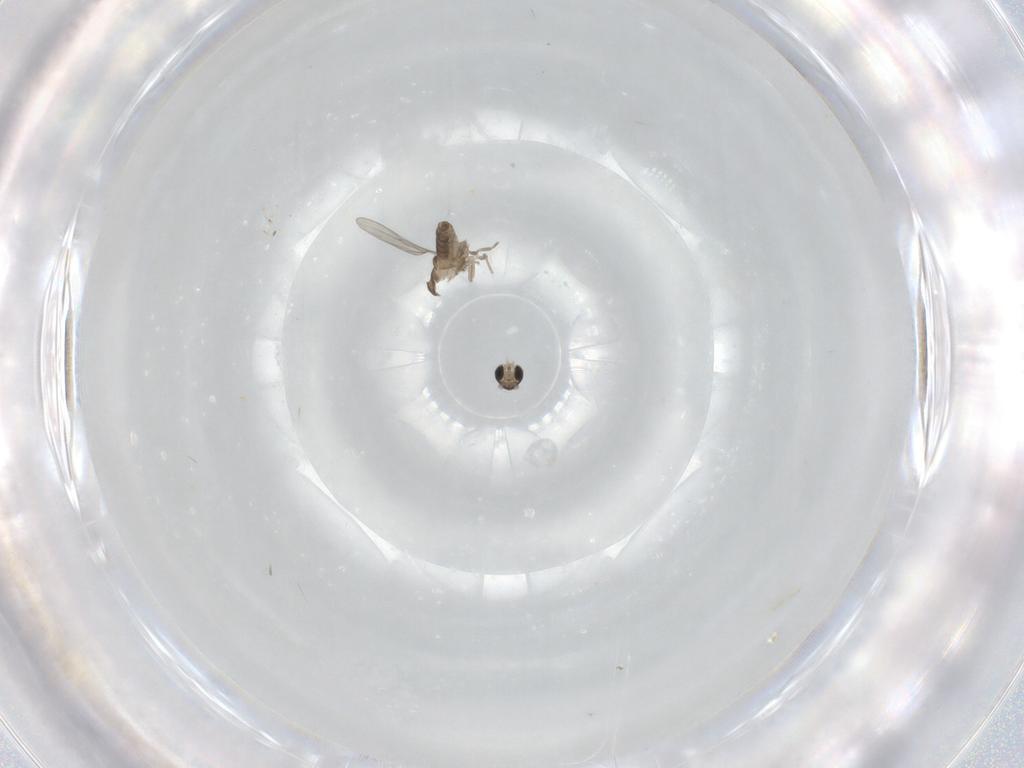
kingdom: Animalia
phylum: Arthropoda
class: Insecta
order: Diptera
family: Cecidomyiidae
